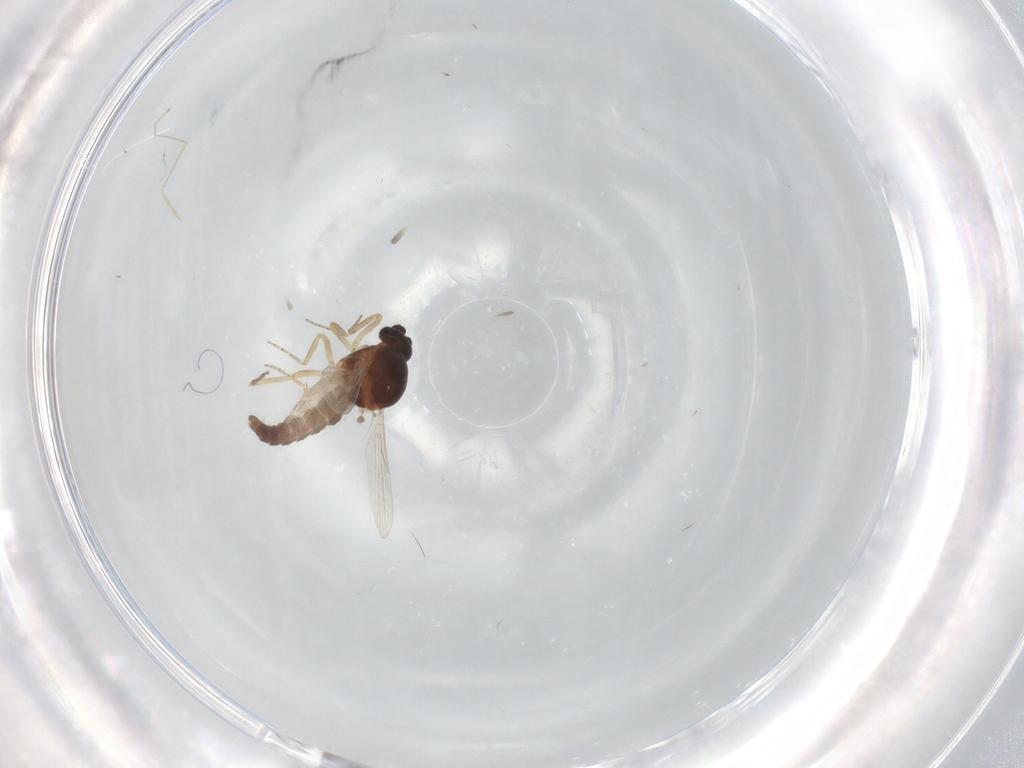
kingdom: Animalia
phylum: Arthropoda
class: Insecta
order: Diptera
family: Ceratopogonidae
